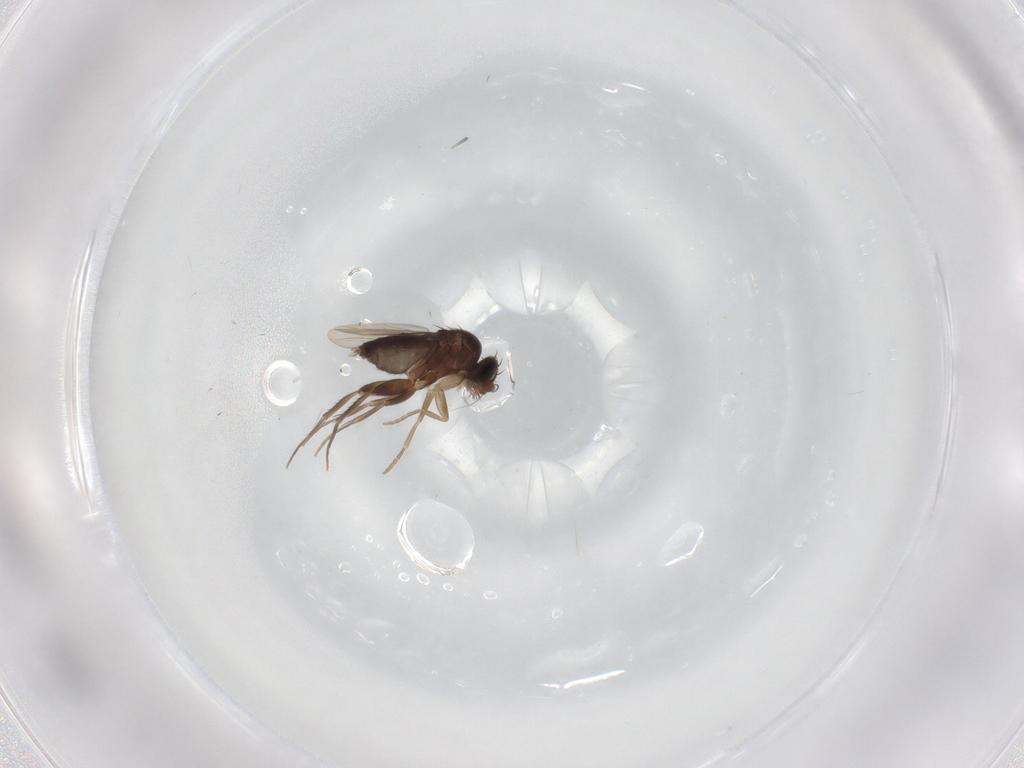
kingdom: Animalia
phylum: Arthropoda
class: Insecta
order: Diptera
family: Phoridae
